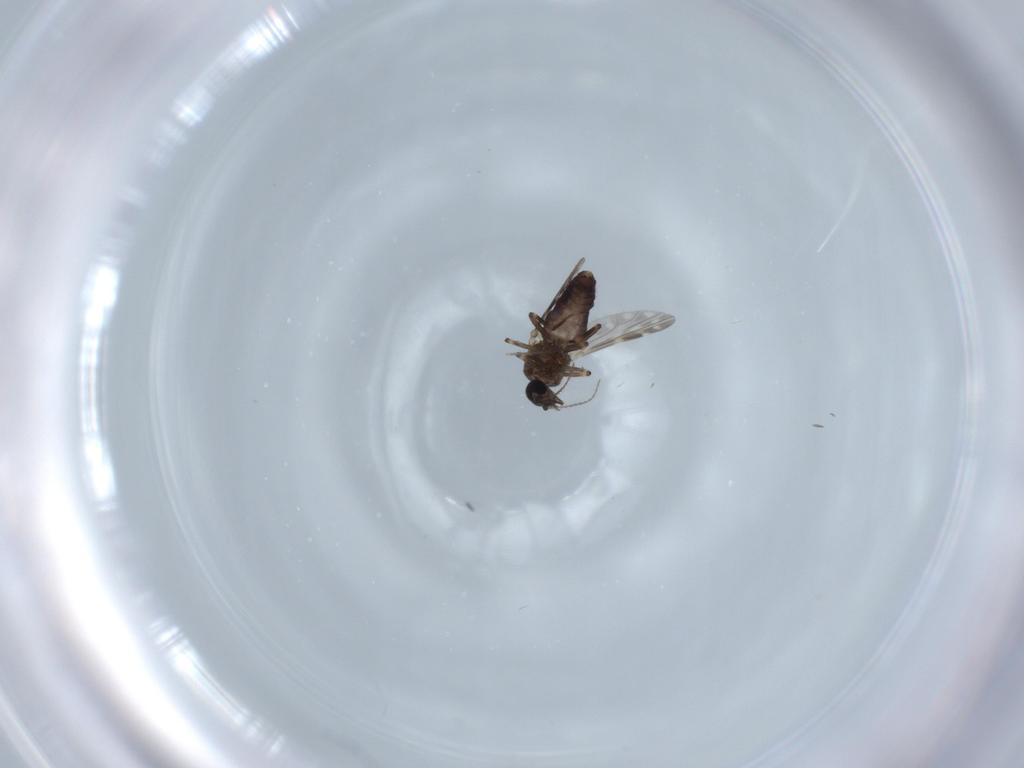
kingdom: Animalia
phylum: Arthropoda
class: Insecta
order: Diptera
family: Ceratopogonidae
